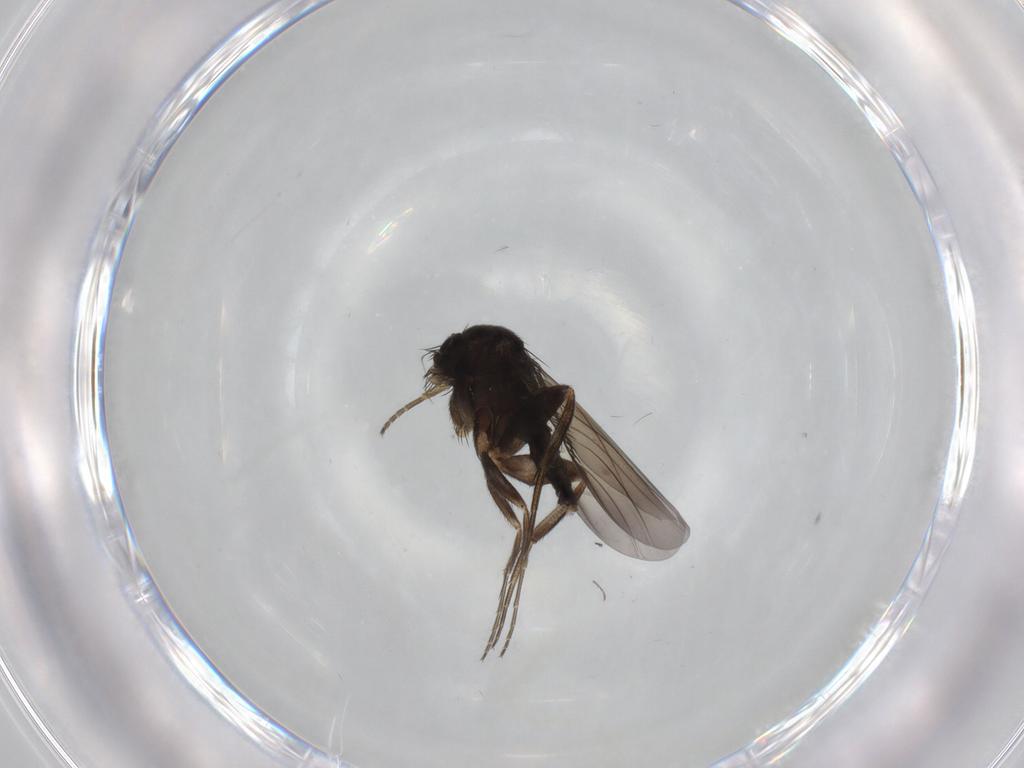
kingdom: Animalia
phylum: Arthropoda
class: Insecta
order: Diptera
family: Phoridae
